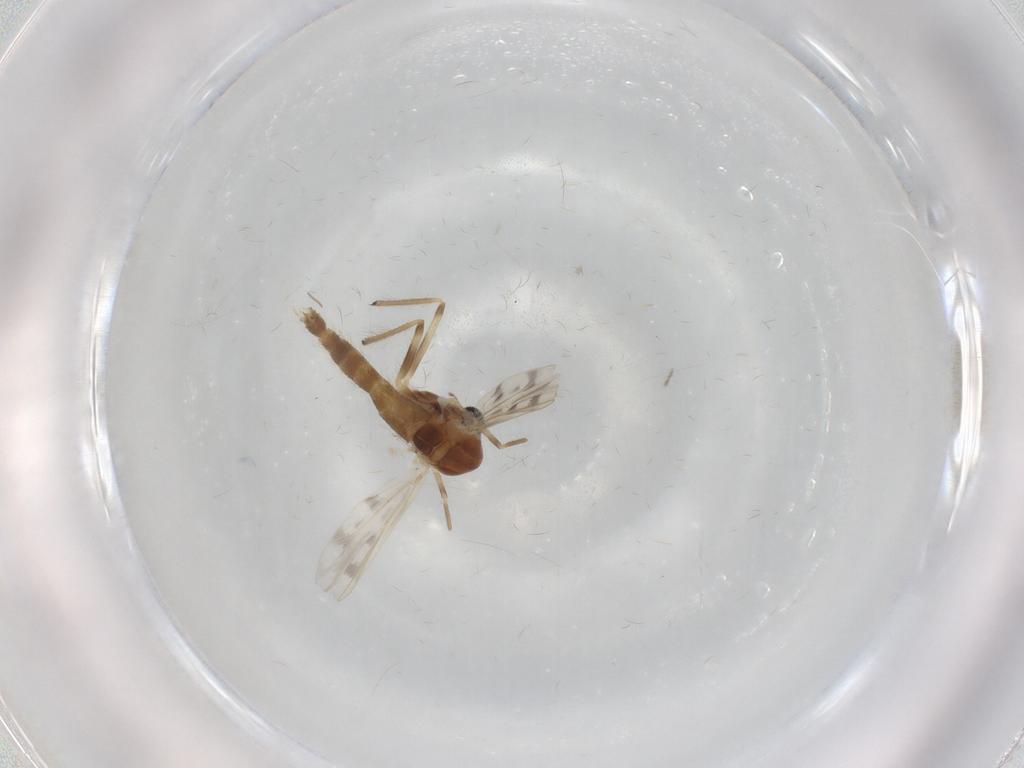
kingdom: Animalia
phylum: Arthropoda
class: Insecta
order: Diptera
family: Chironomidae
